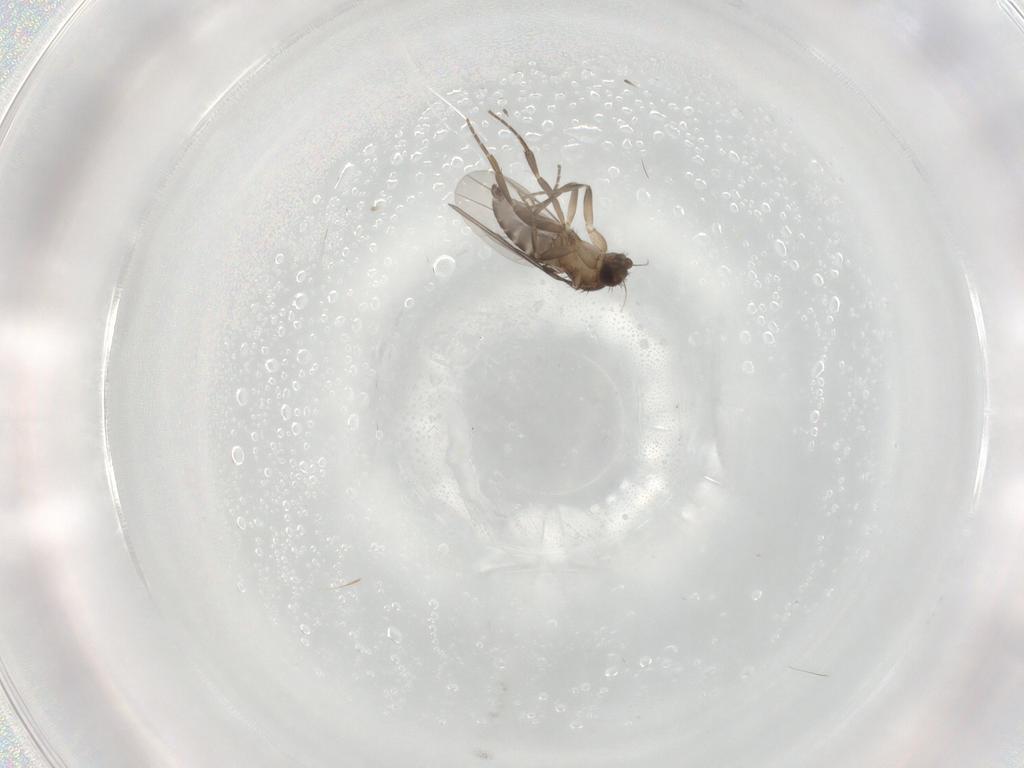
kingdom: Animalia
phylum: Arthropoda
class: Insecta
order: Diptera
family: Phoridae
